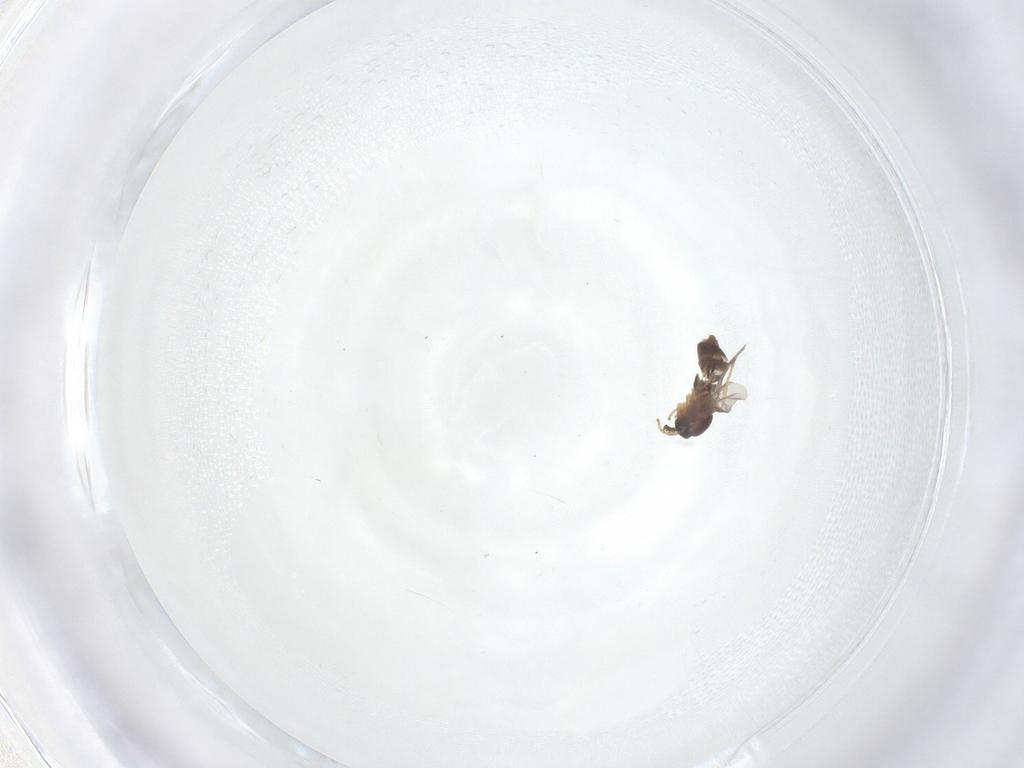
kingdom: Animalia
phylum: Arthropoda
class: Insecta
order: Diptera
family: Scatopsidae
